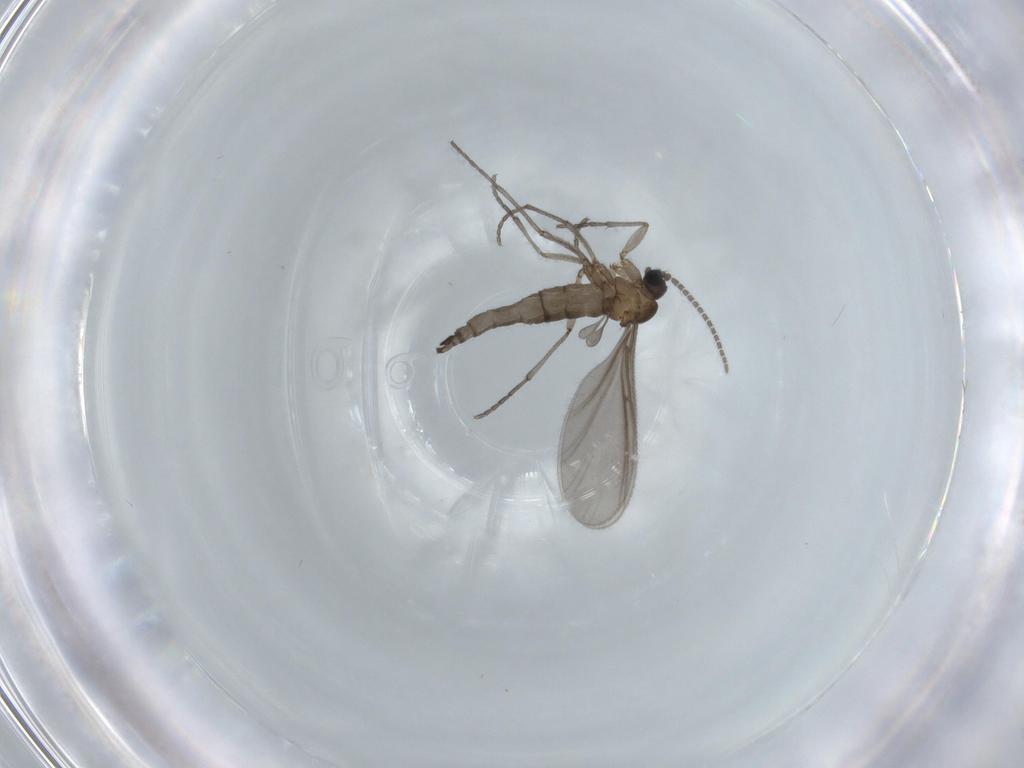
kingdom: Animalia
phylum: Arthropoda
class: Insecta
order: Diptera
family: Sciaridae
